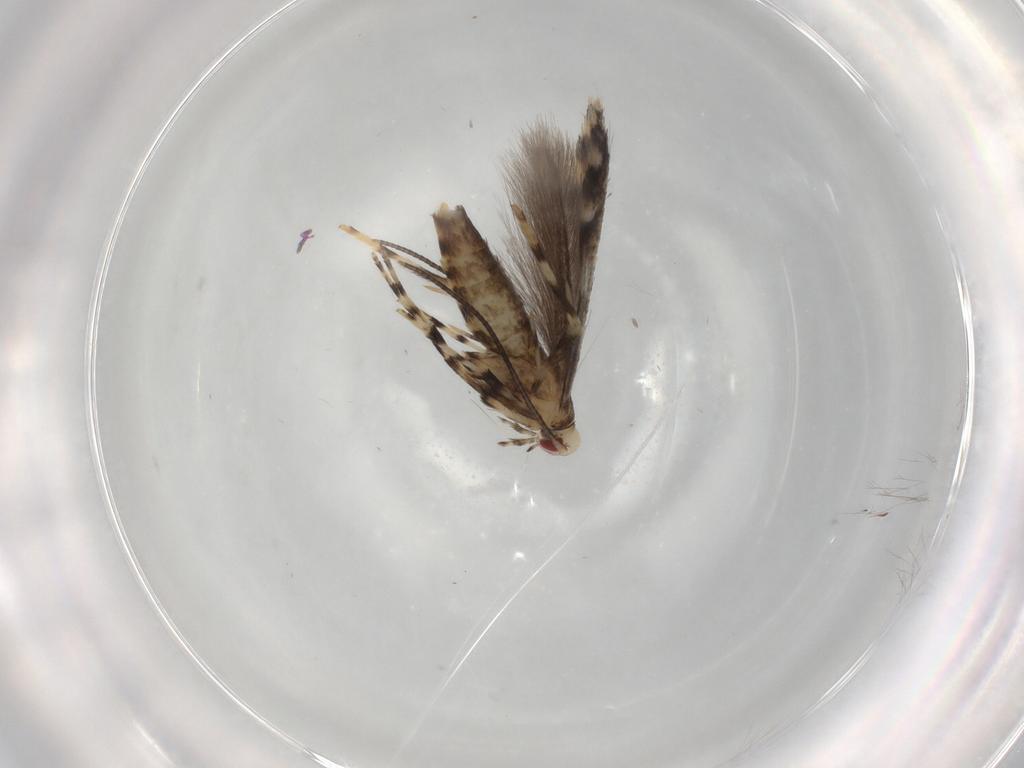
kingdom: Animalia
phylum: Arthropoda
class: Insecta
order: Lepidoptera
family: Gracillariidae
